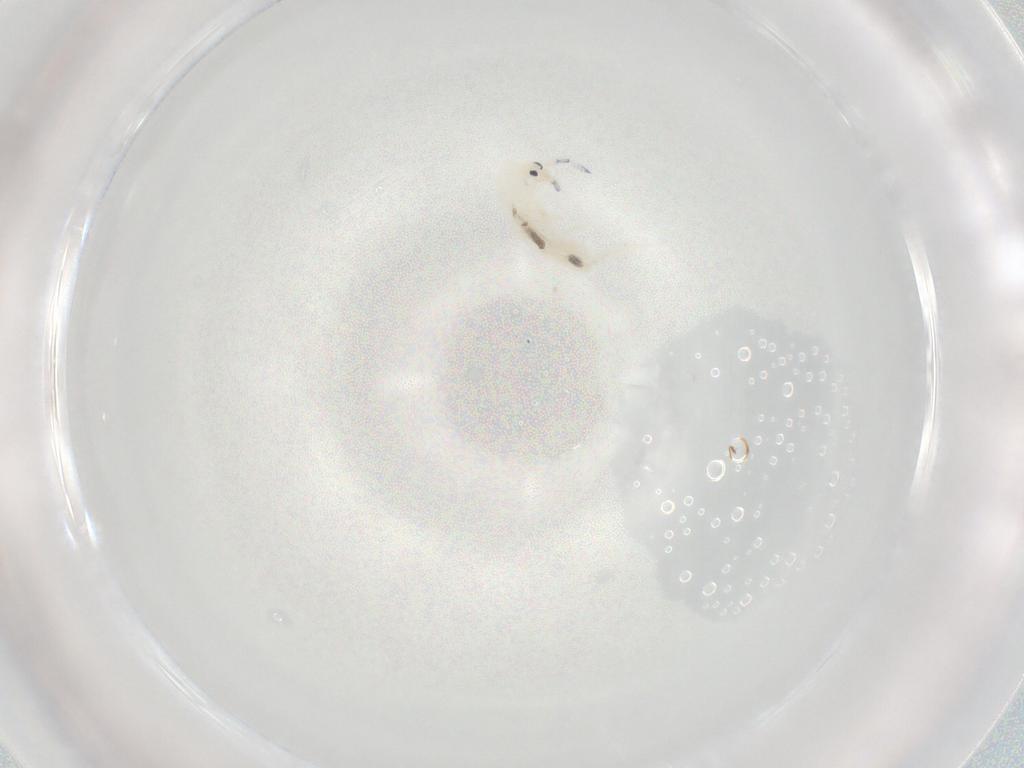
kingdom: Animalia
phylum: Arthropoda
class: Collembola
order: Entomobryomorpha
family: Entomobryidae
